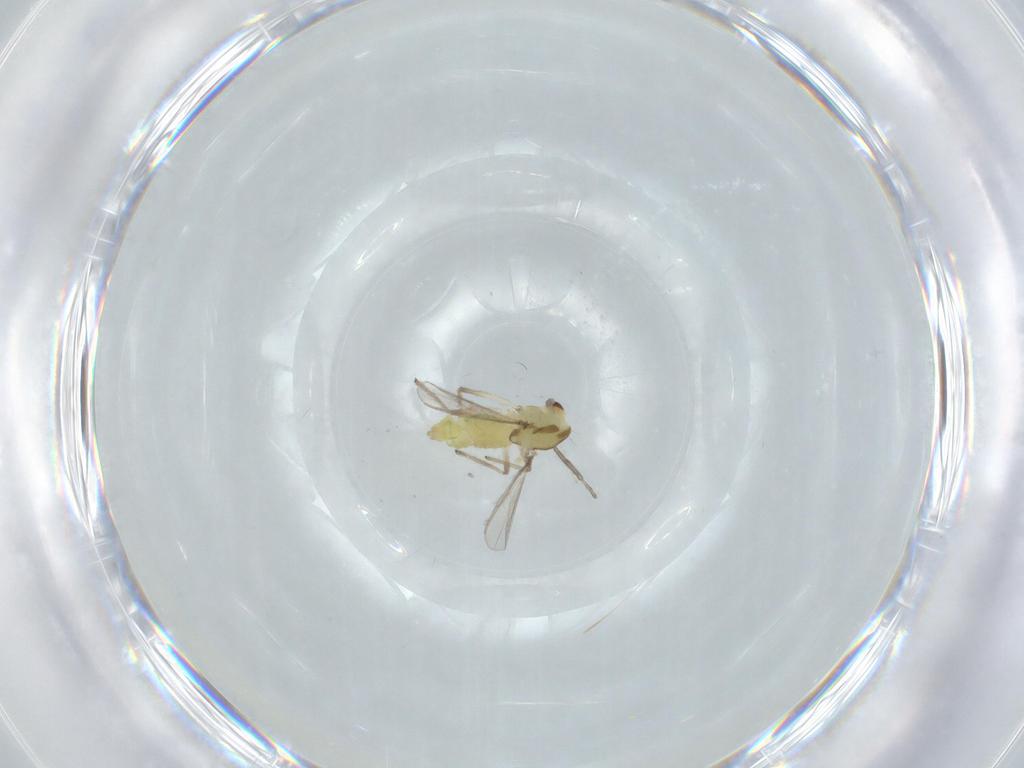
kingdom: Animalia
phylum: Arthropoda
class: Insecta
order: Diptera
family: Chironomidae
